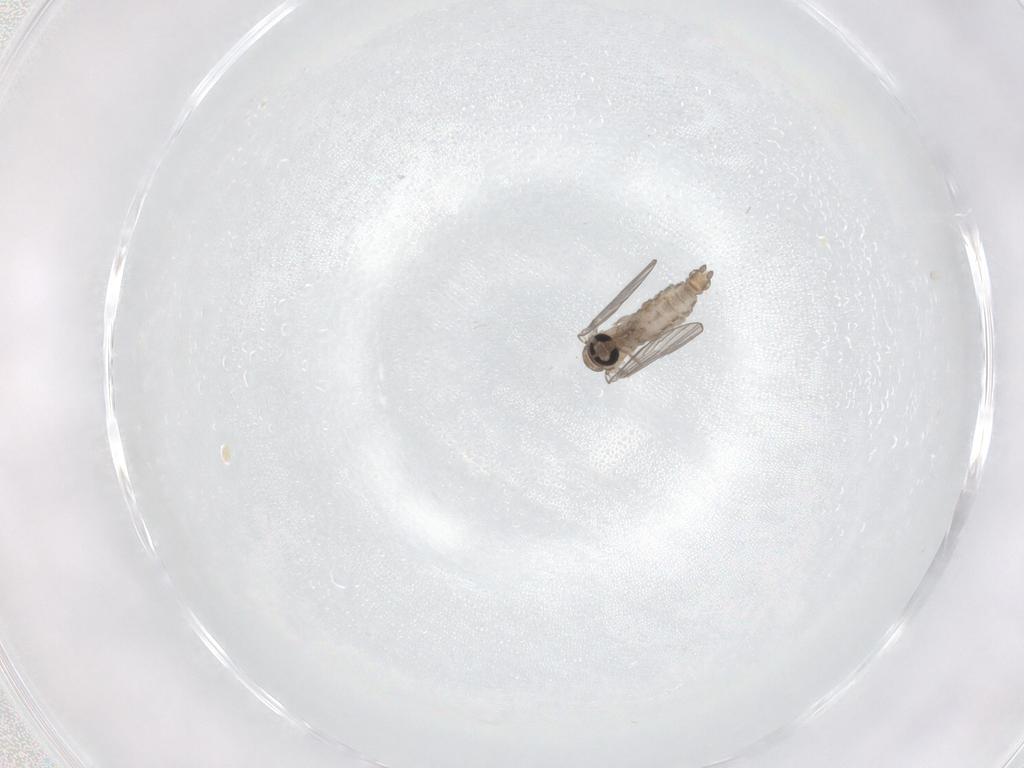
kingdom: Animalia
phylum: Arthropoda
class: Insecta
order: Diptera
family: Psychodidae
